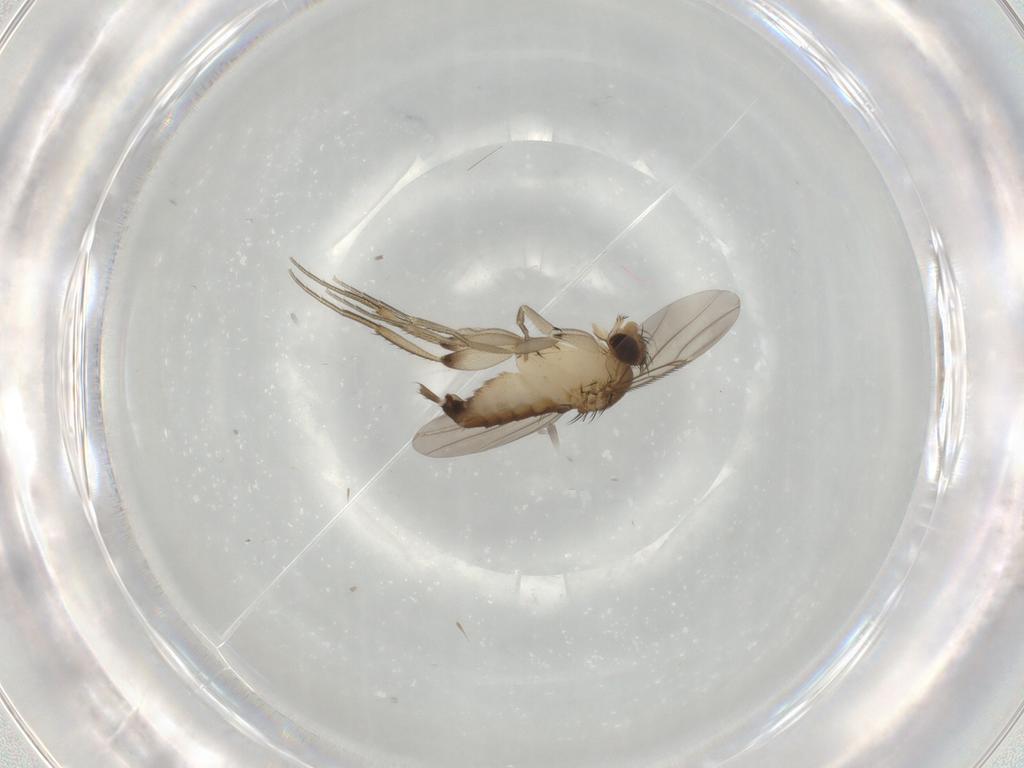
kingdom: Animalia
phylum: Arthropoda
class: Insecta
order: Diptera
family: Phoridae
